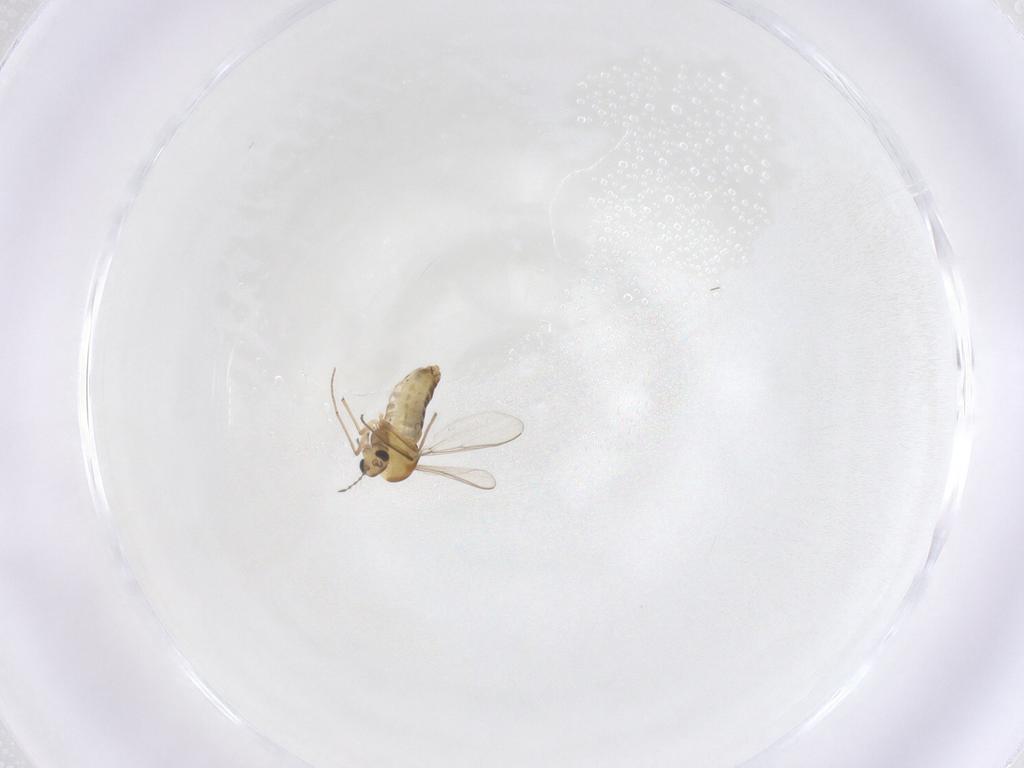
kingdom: Animalia
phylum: Arthropoda
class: Insecta
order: Diptera
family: Chironomidae
